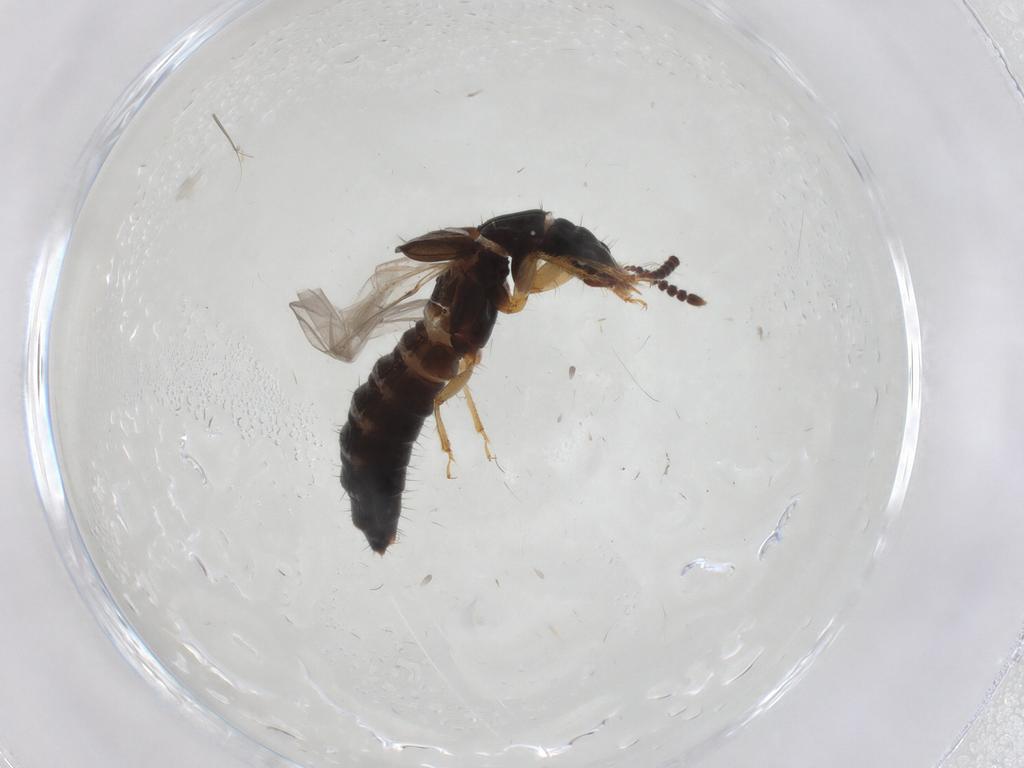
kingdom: Animalia
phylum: Arthropoda
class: Insecta
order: Coleoptera
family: Staphylinidae
